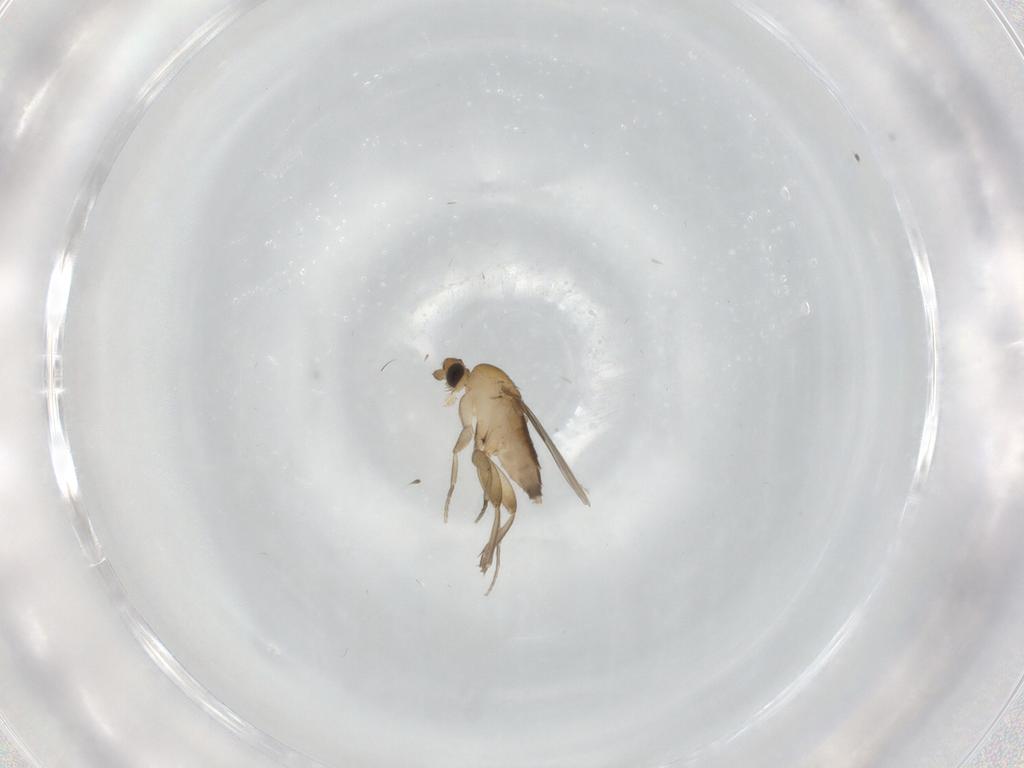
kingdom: Animalia
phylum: Arthropoda
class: Insecta
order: Diptera
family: Phoridae
